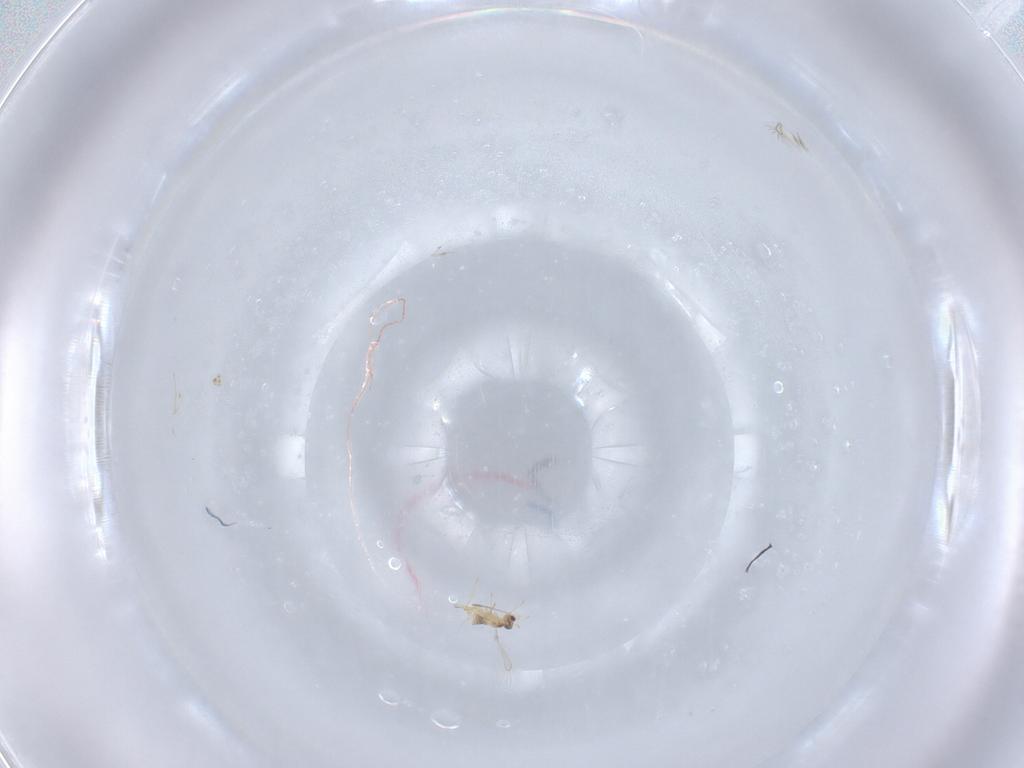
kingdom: Animalia
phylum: Arthropoda
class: Insecta
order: Hymenoptera
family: Mymaridae
